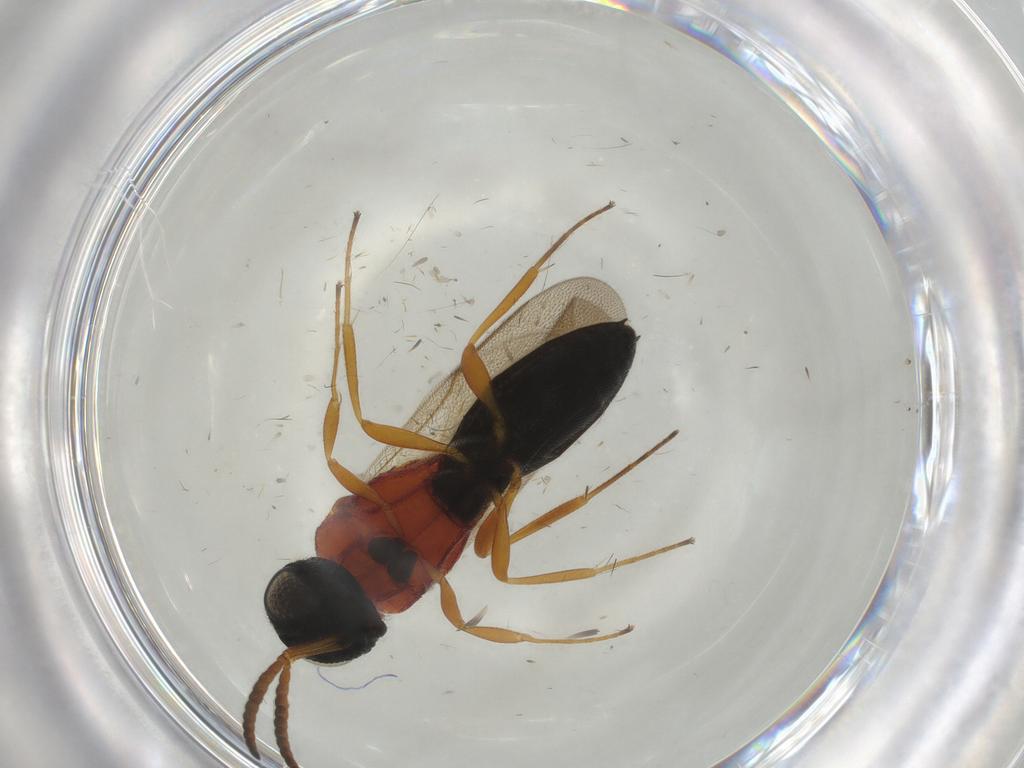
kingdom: Animalia
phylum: Arthropoda
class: Insecta
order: Hymenoptera
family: Scelionidae
